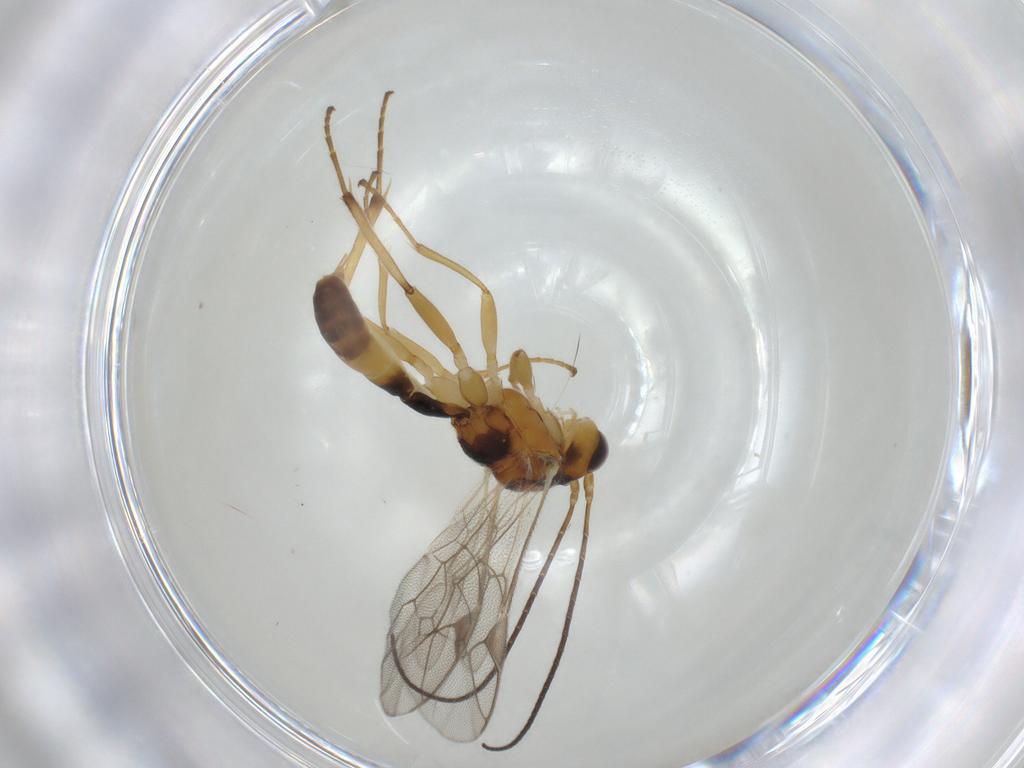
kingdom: Animalia
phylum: Arthropoda
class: Insecta
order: Hymenoptera
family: Ichneumonidae
